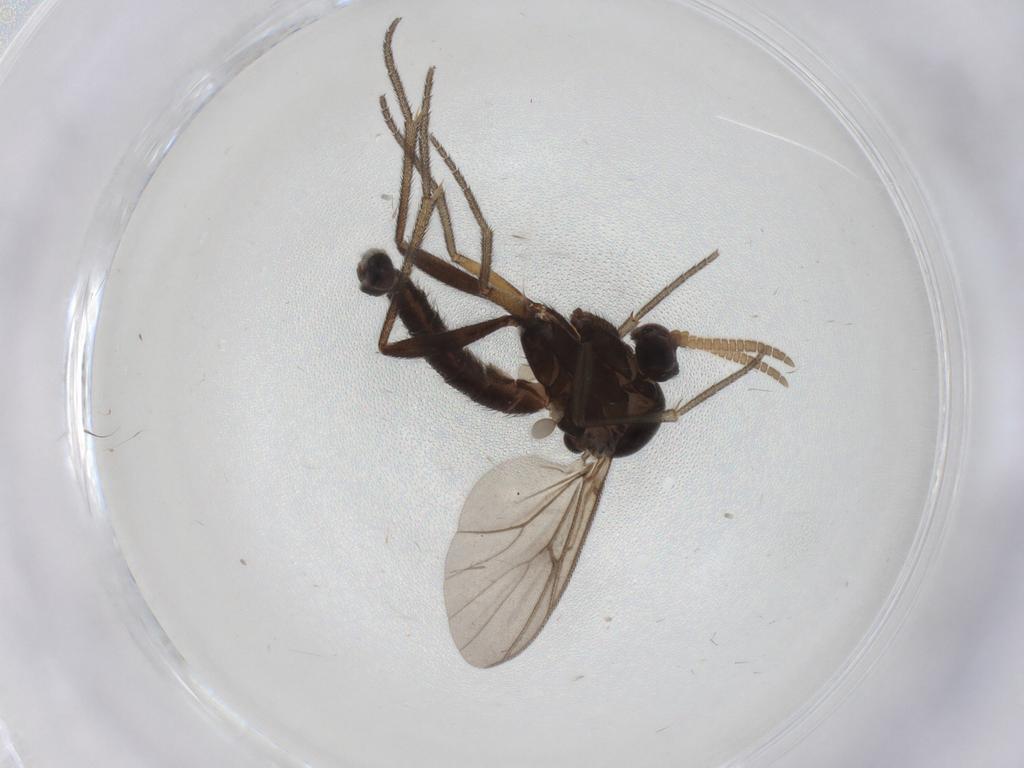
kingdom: Animalia
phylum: Arthropoda
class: Insecta
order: Diptera
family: Mycetophilidae
